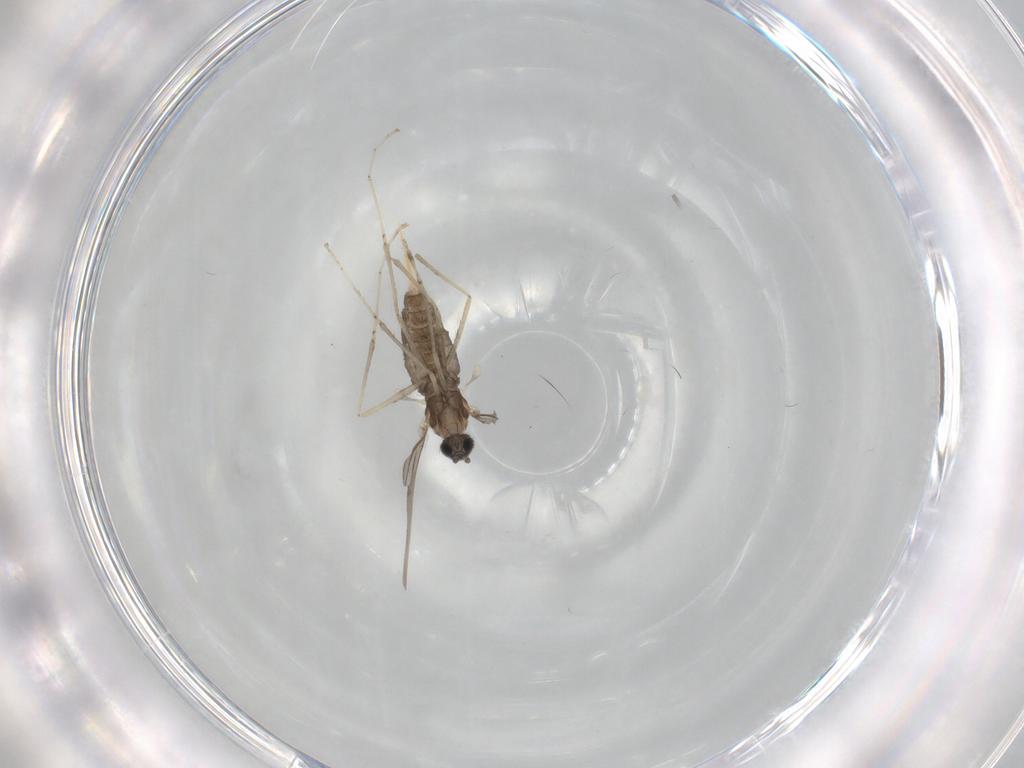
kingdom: Animalia
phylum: Arthropoda
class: Insecta
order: Diptera
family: Cecidomyiidae
